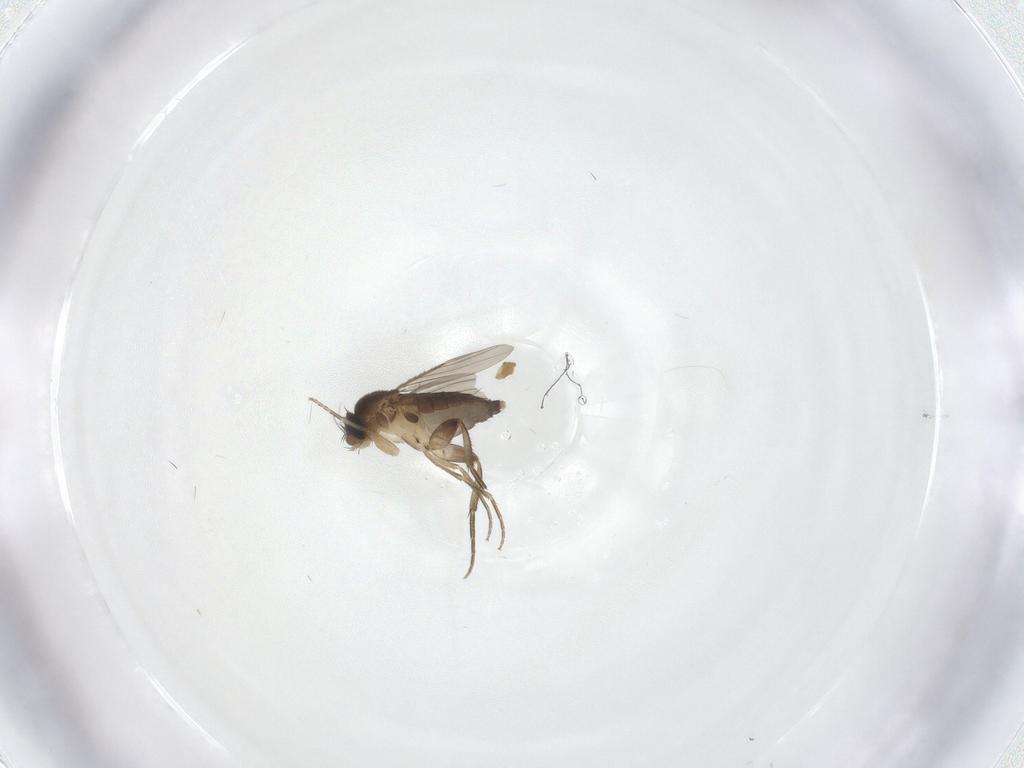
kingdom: Animalia
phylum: Arthropoda
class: Insecta
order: Diptera
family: Phoridae
